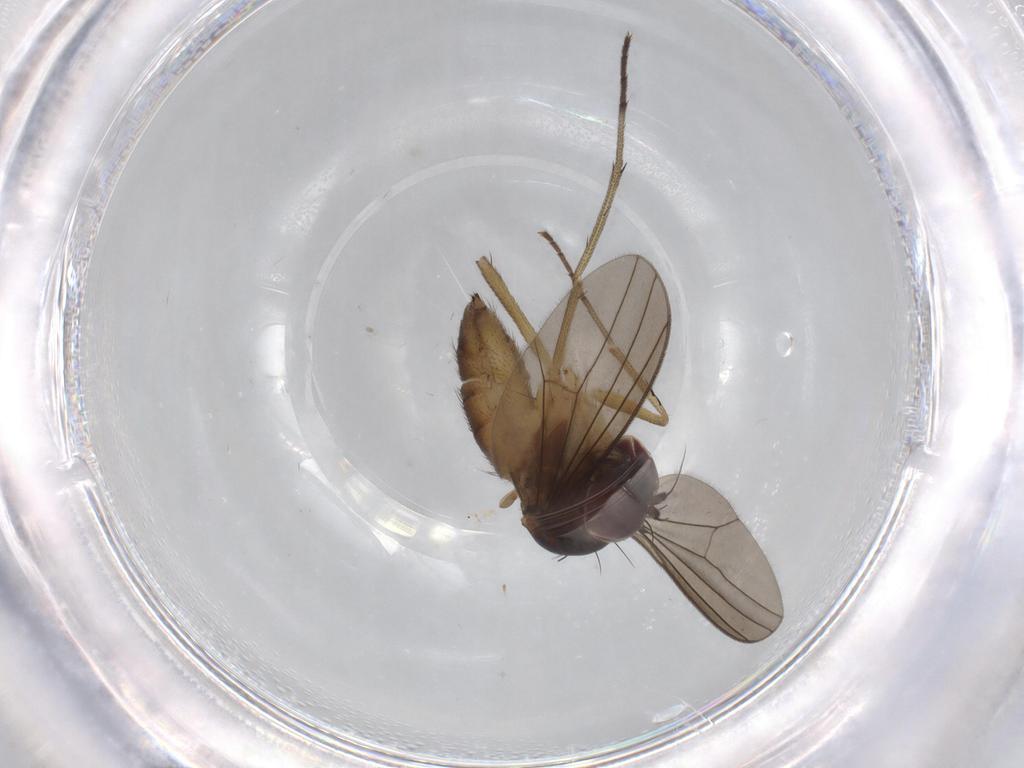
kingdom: Animalia
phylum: Arthropoda
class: Insecta
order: Diptera
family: Dolichopodidae
